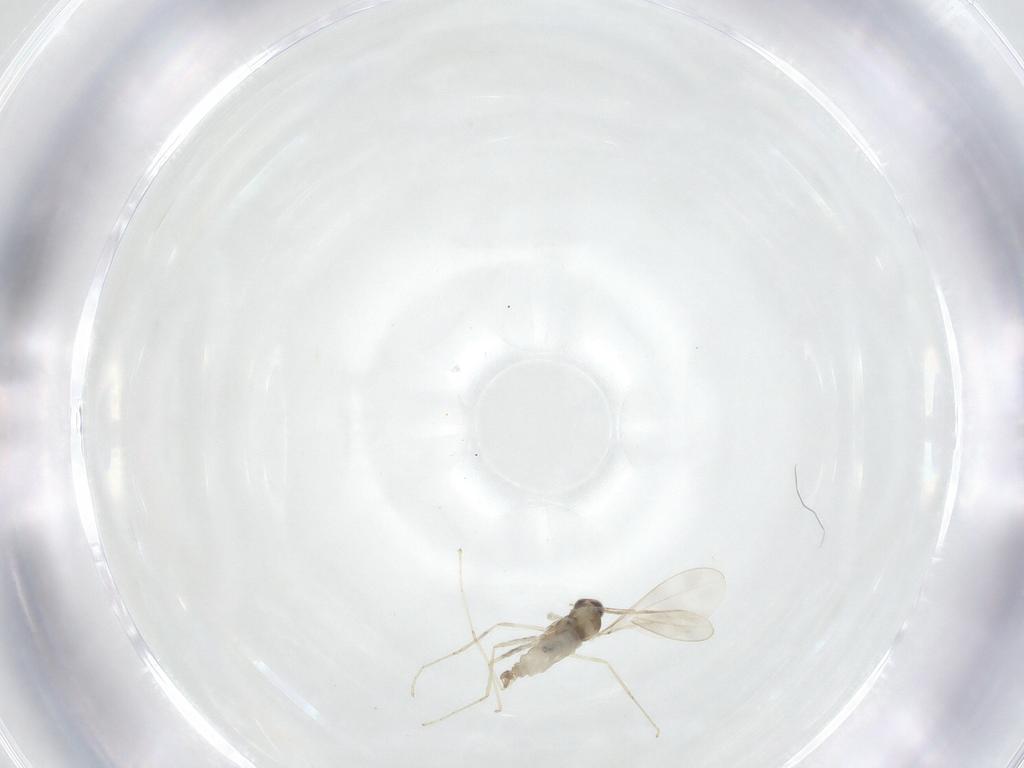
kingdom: Animalia
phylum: Arthropoda
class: Insecta
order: Diptera
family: Cecidomyiidae
